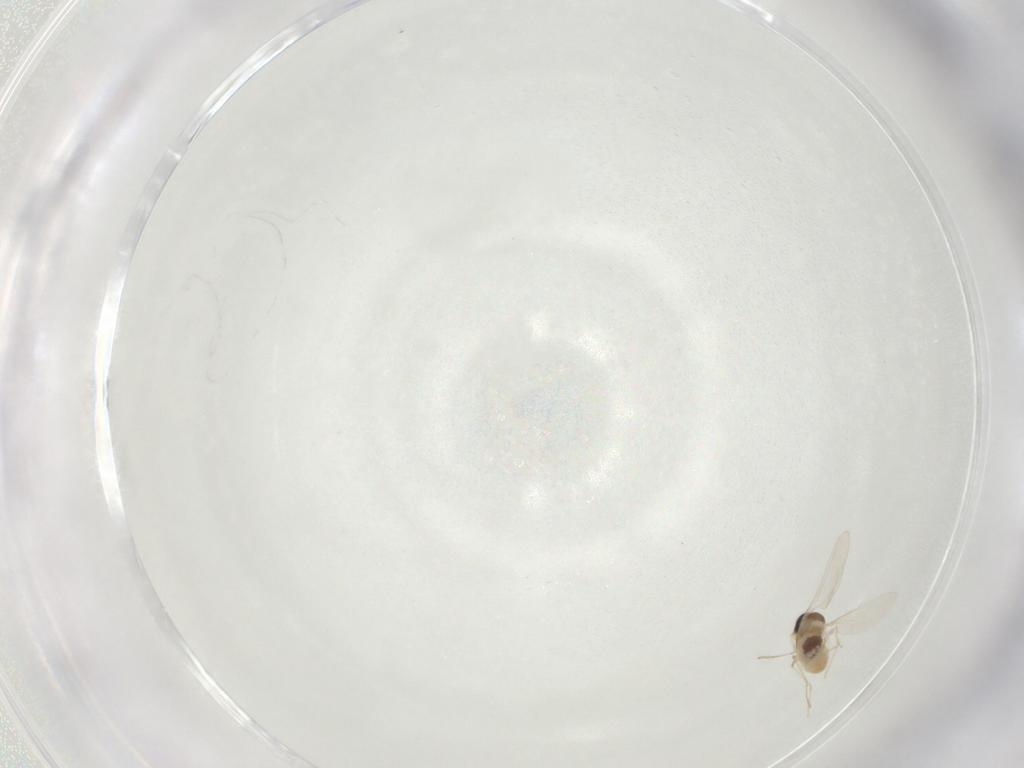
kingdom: Animalia
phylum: Arthropoda
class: Insecta
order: Diptera
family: Cecidomyiidae
